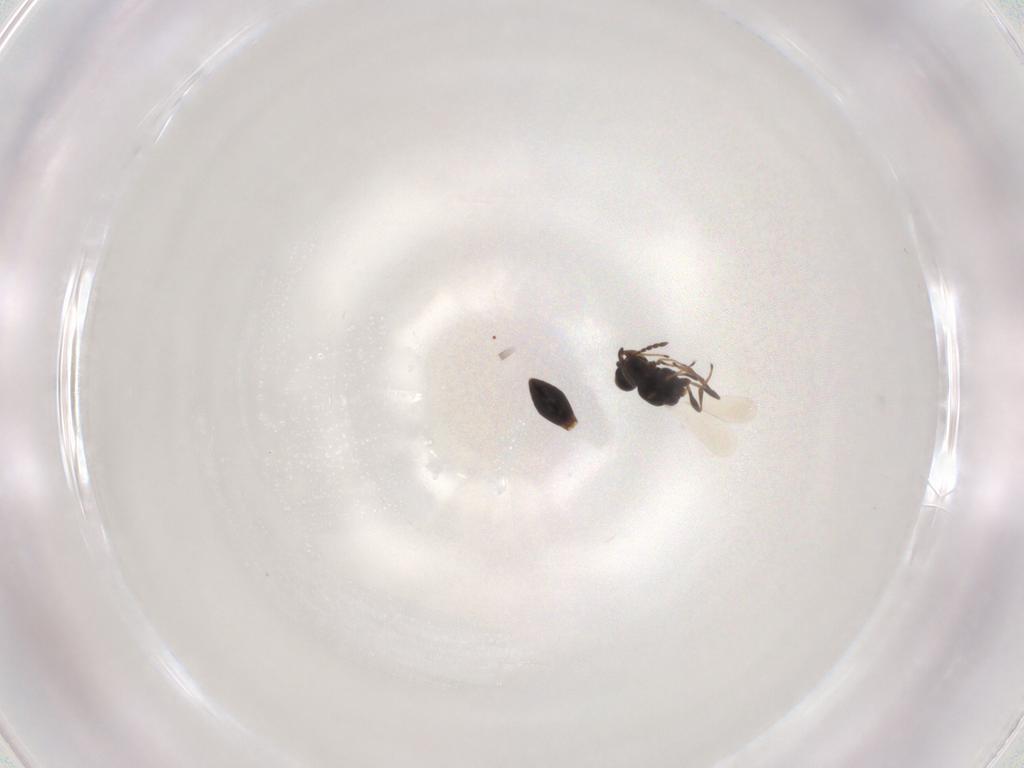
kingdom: Animalia
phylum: Arthropoda
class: Insecta
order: Hymenoptera
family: Platygastridae
